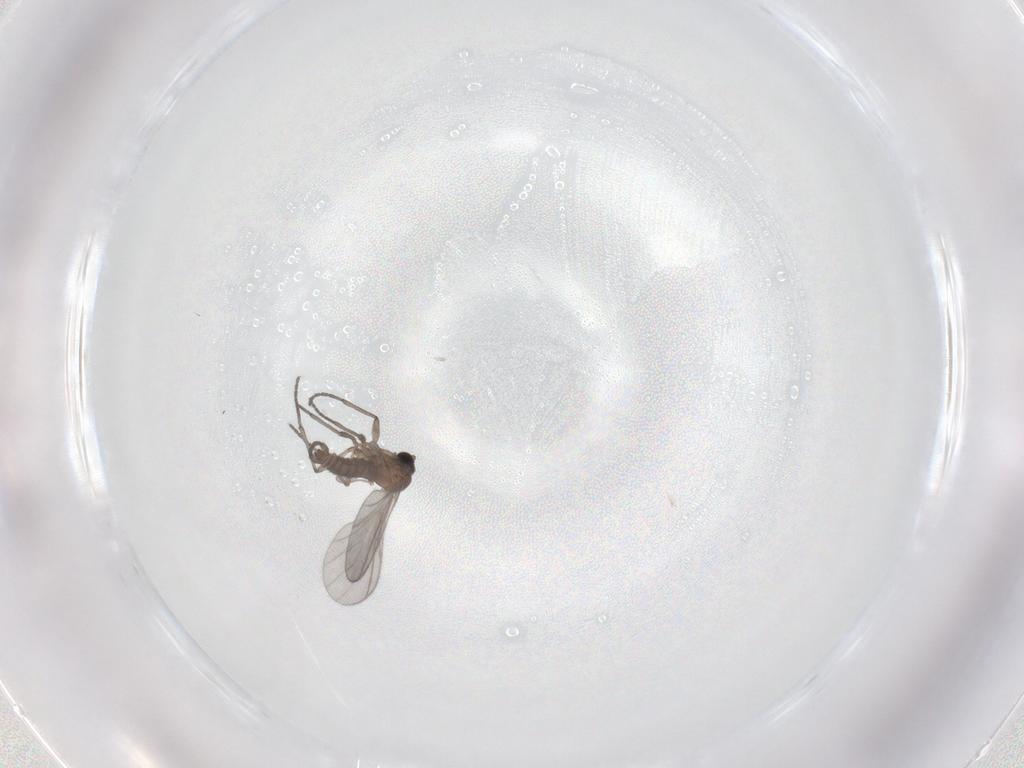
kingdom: Animalia
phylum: Arthropoda
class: Insecta
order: Diptera
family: Sciaridae
